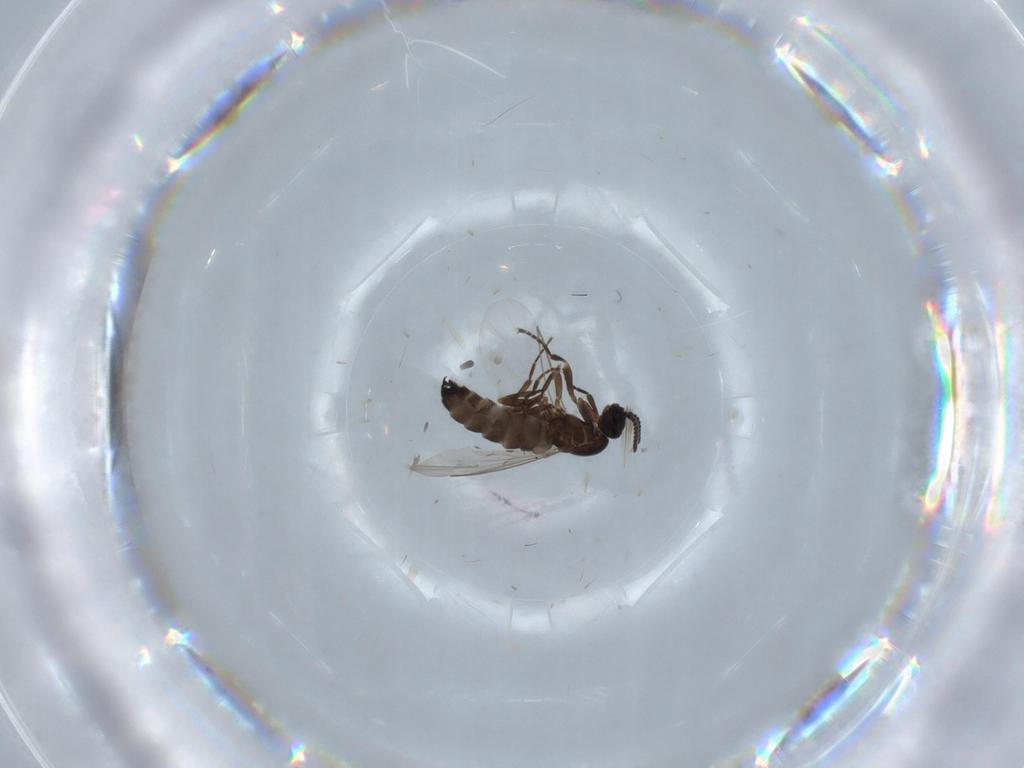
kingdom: Animalia
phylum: Arthropoda
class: Insecta
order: Diptera
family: Scatopsidae
